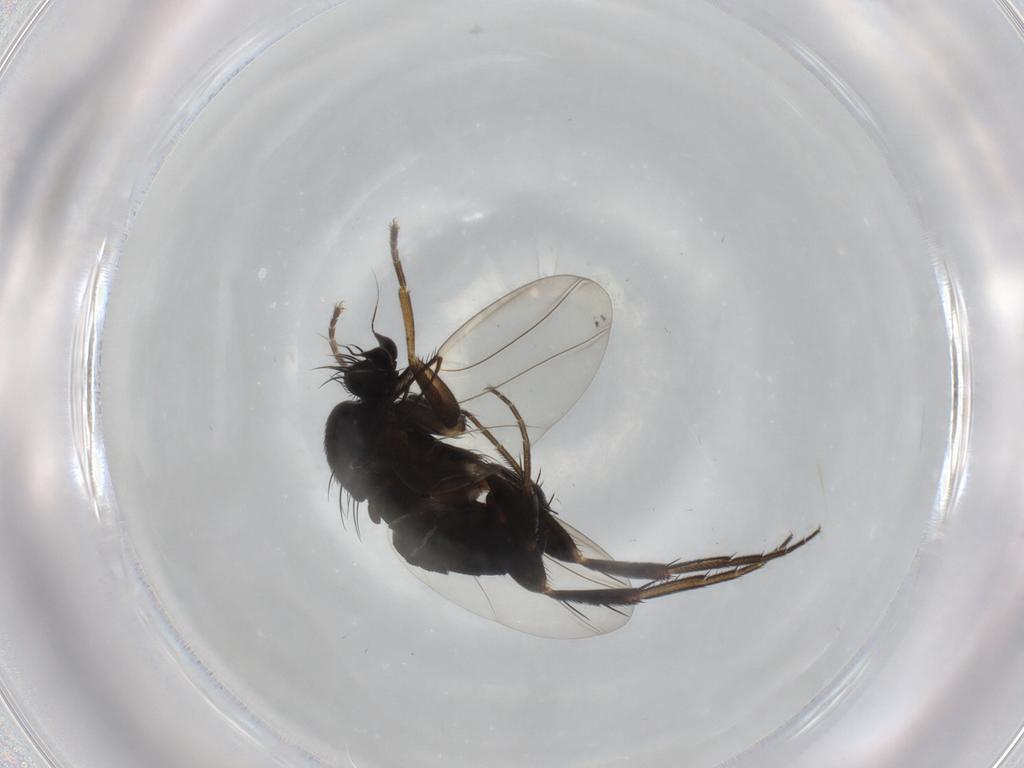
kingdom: Animalia
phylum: Arthropoda
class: Insecta
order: Diptera
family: Phoridae
